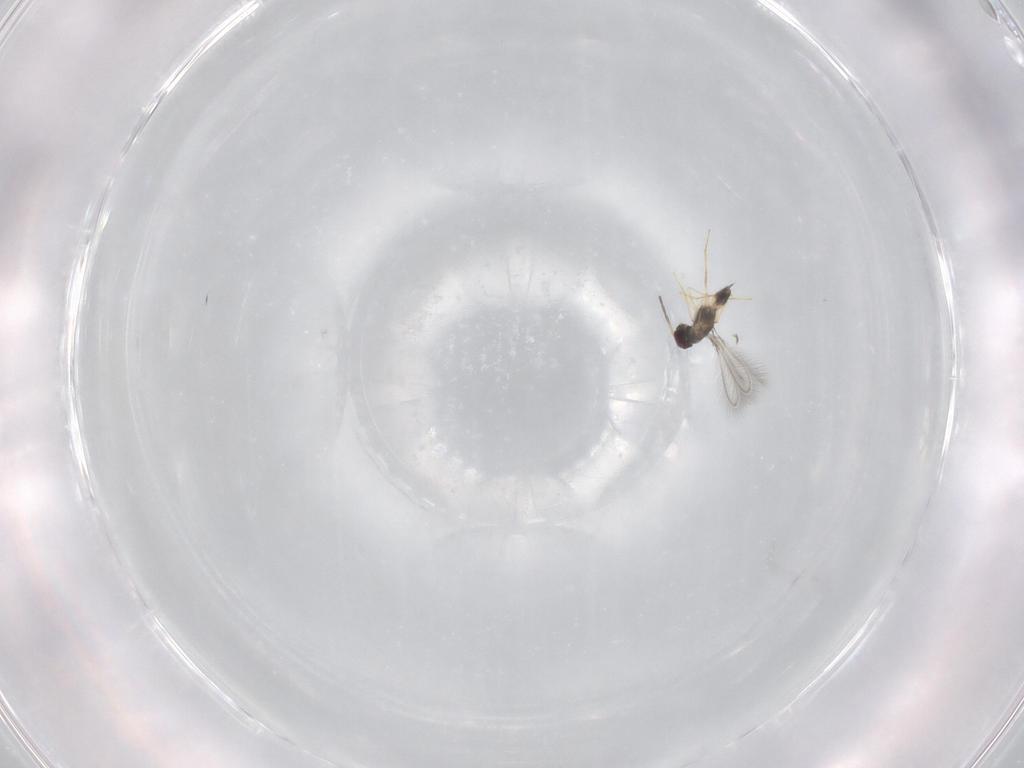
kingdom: Animalia
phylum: Arthropoda
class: Insecta
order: Hymenoptera
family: Mymaridae
